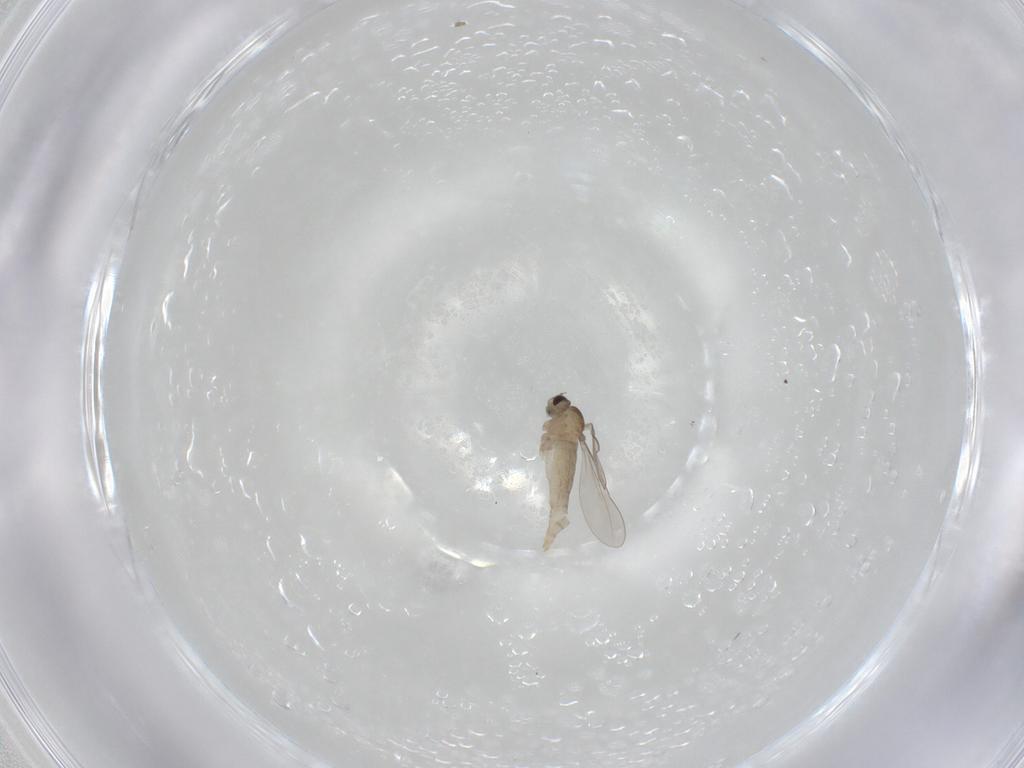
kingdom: Animalia
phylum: Arthropoda
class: Insecta
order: Diptera
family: Cecidomyiidae
